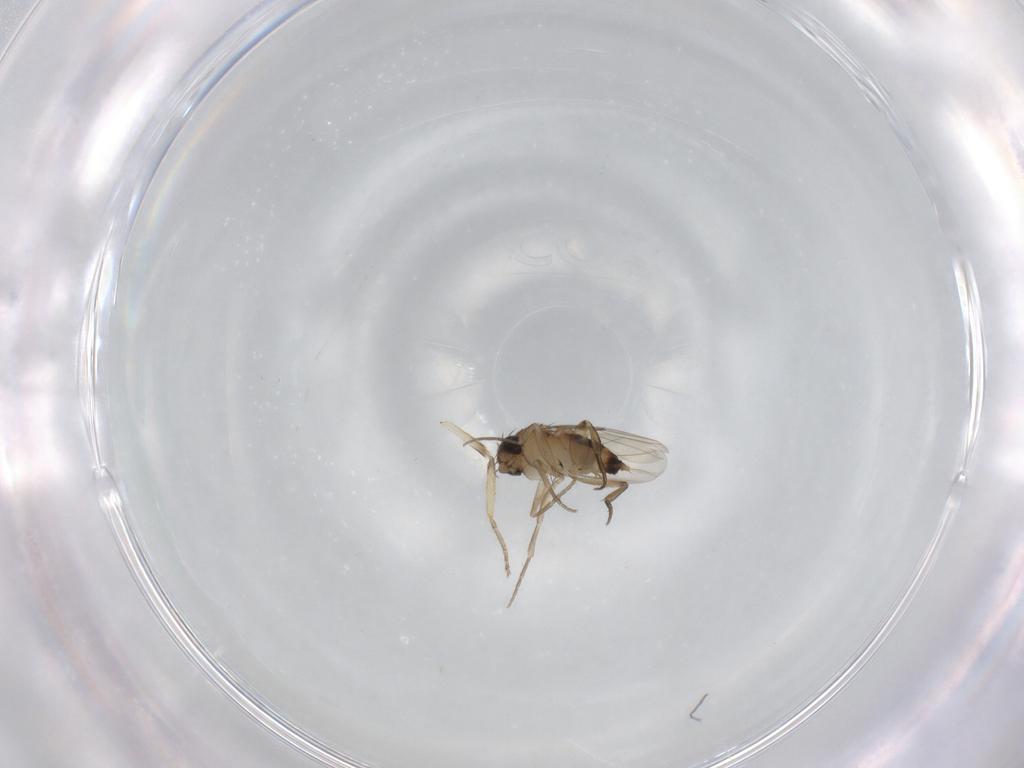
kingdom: Animalia
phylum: Arthropoda
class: Insecta
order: Diptera
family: Phoridae
